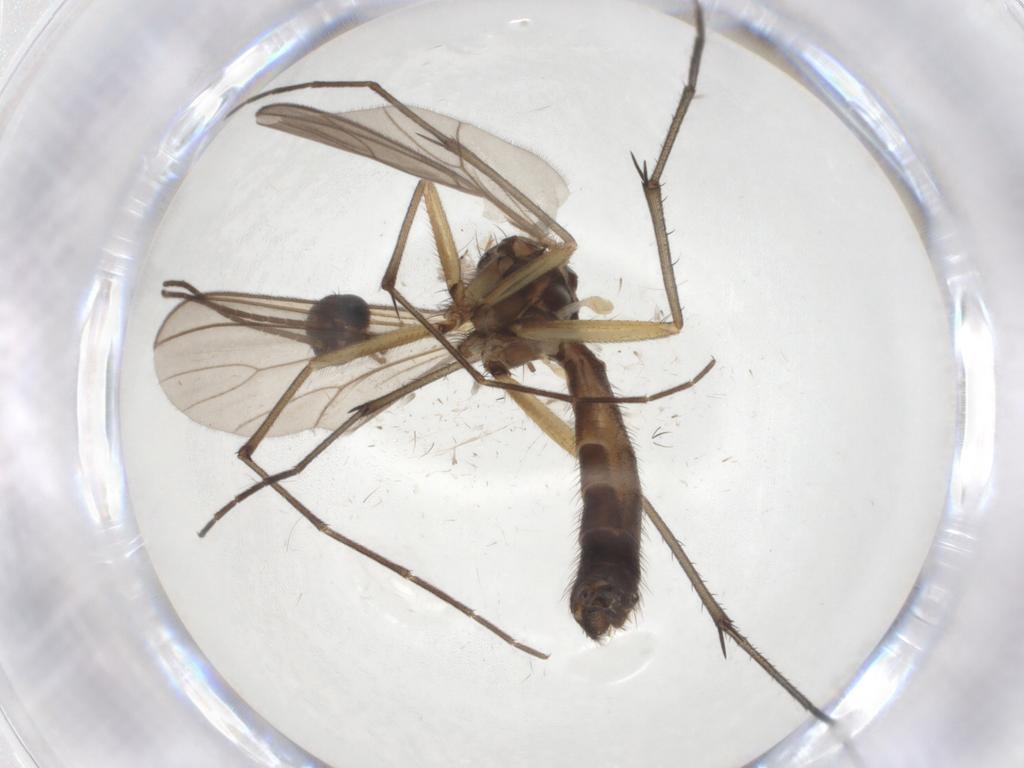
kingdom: Animalia
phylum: Arthropoda
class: Insecta
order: Diptera
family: Mycetophilidae
